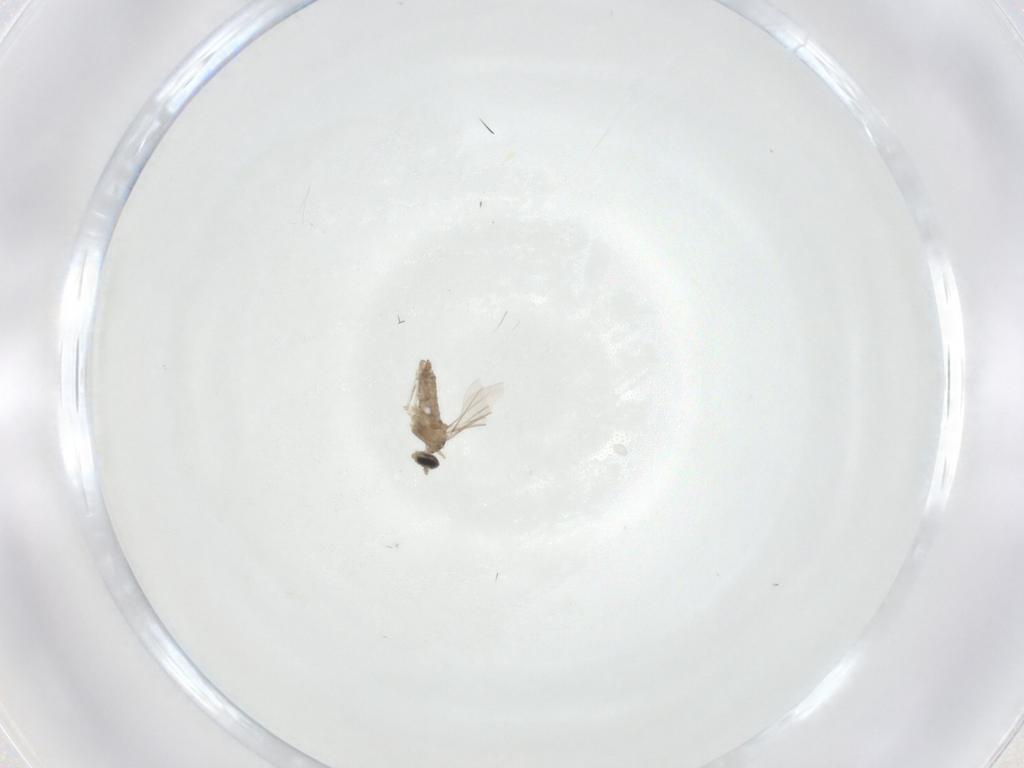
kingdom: Animalia
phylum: Arthropoda
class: Insecta
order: Diptera
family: Cecidomyiidae
